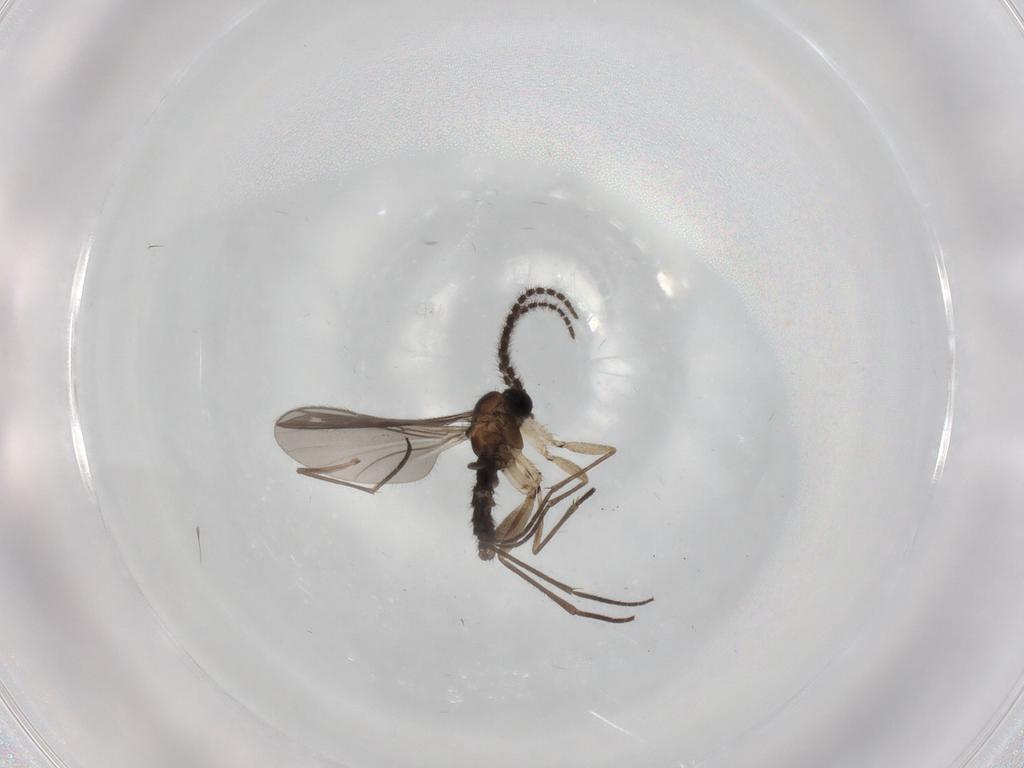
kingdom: Animalia
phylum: Arthropoda
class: Insecta
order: Diptera
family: Sciaridae
